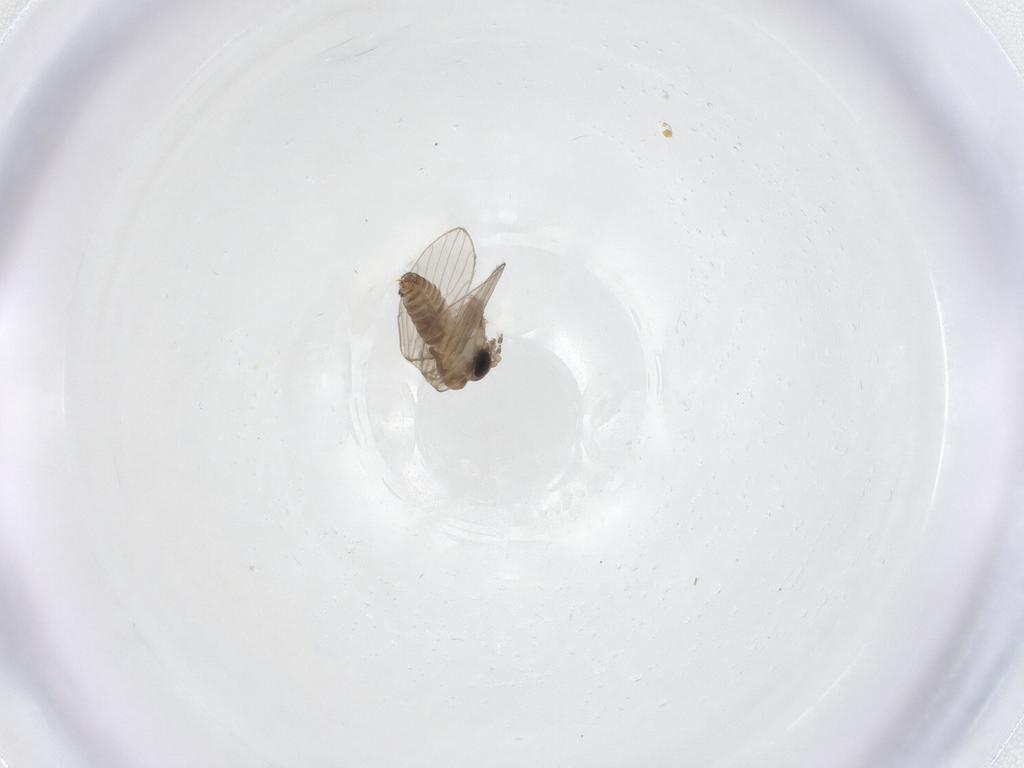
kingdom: Animalia
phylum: Arthropoda
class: Insecta
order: Diptera
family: Psychodidae
